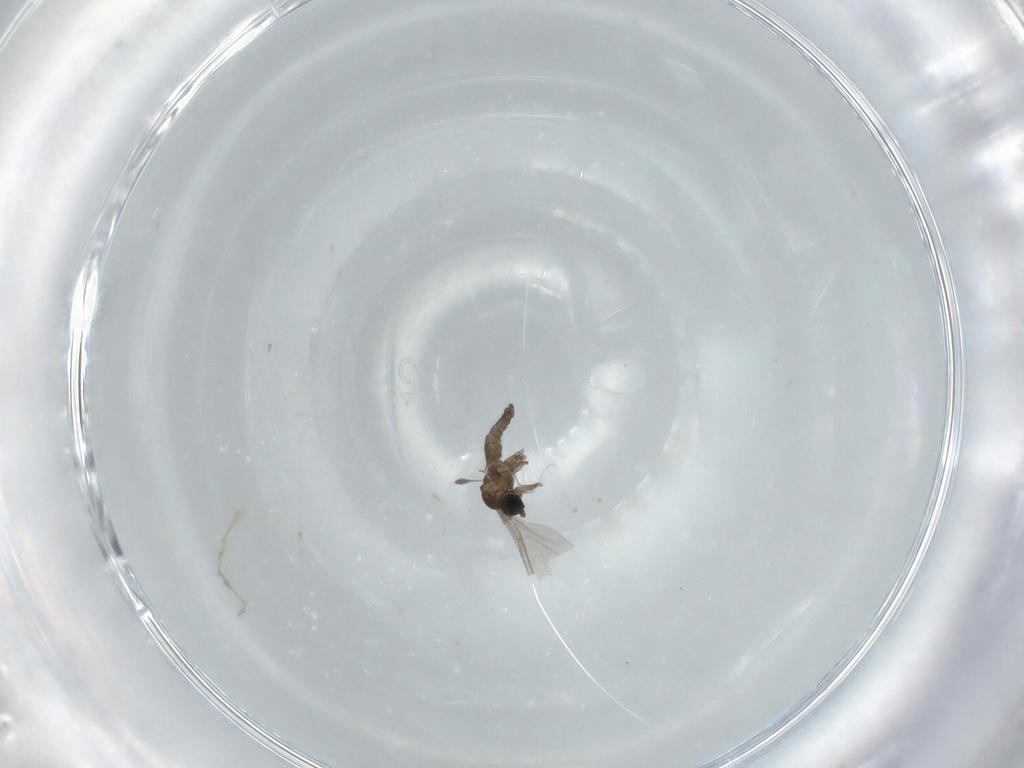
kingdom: Animalia
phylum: Arthropoda
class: Insecta
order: Diptera
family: Sciaridae
